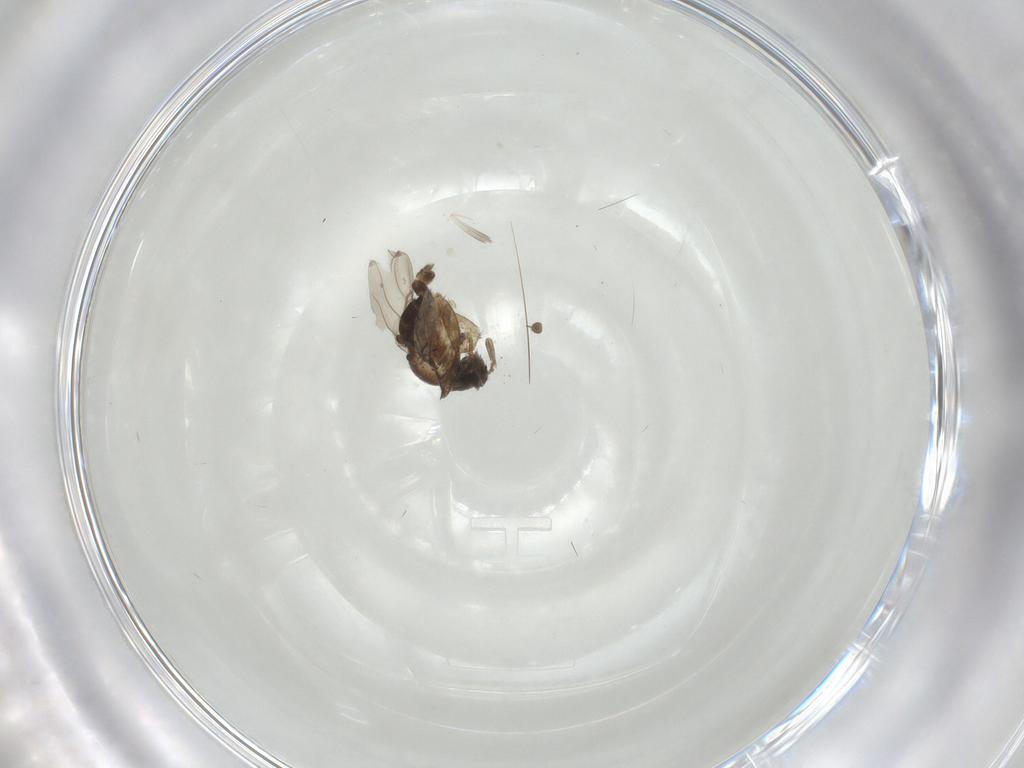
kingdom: Animalia
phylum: Arthropoda
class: Insecta
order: Diptera
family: Phoridae
